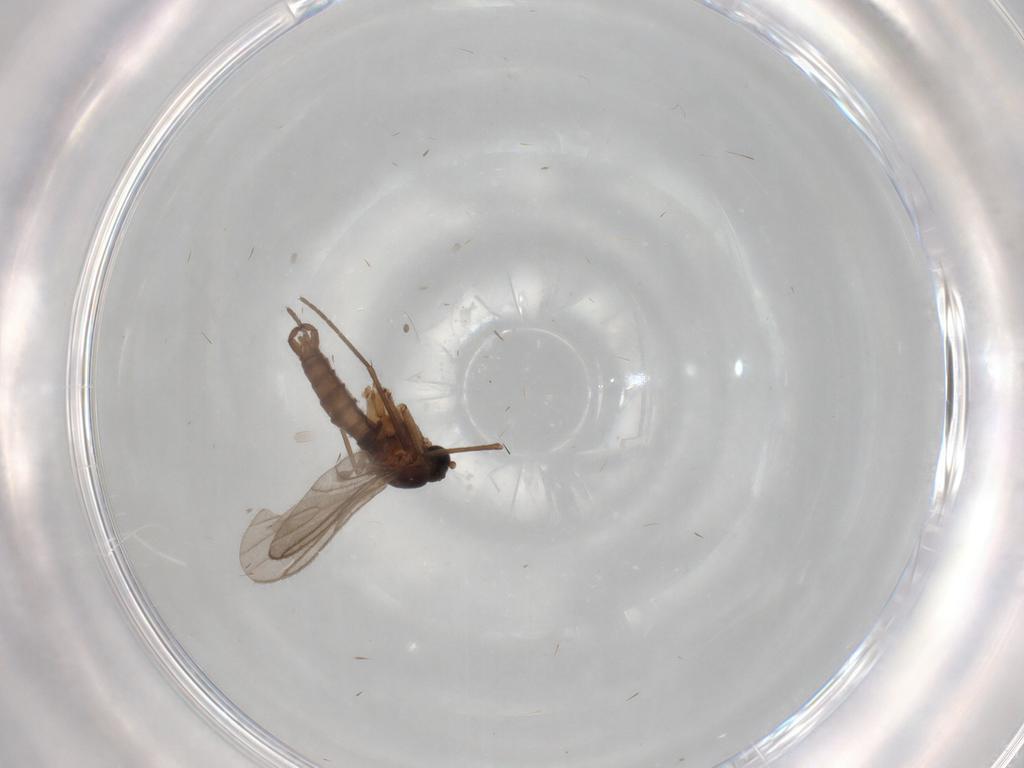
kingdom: Animalia
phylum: Arthropoda
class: Insecta
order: Diptera
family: Sciaridae
